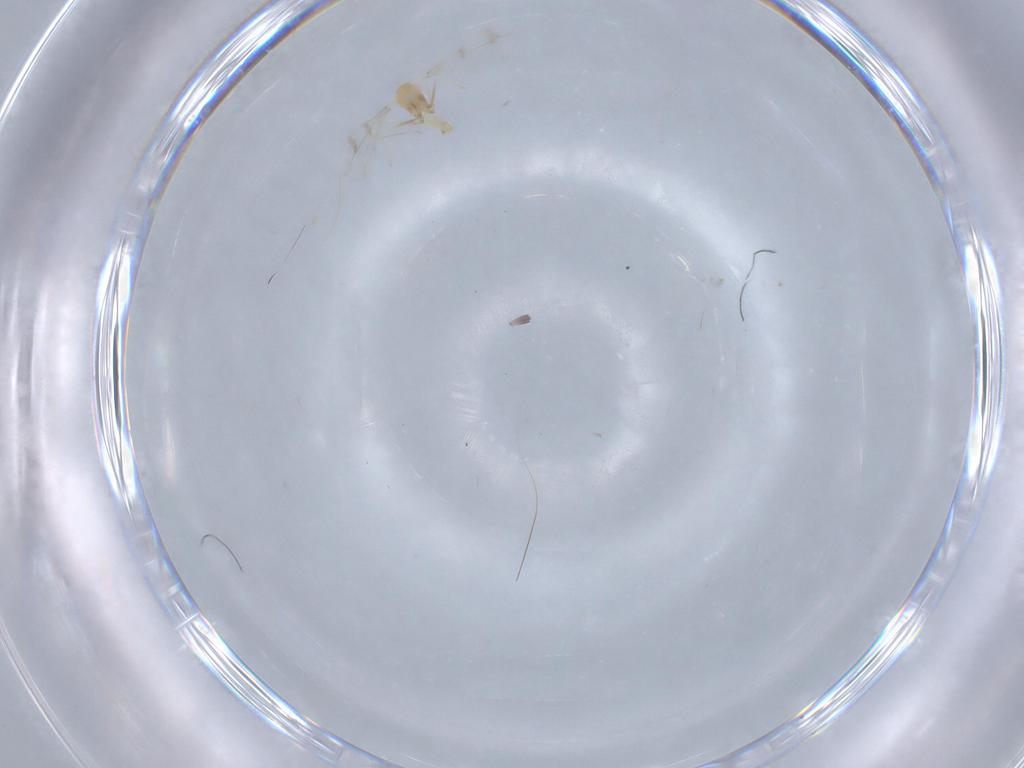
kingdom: Animalia
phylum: Arthropoda
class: Insecta
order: Diptera
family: Cecidomyiidae
